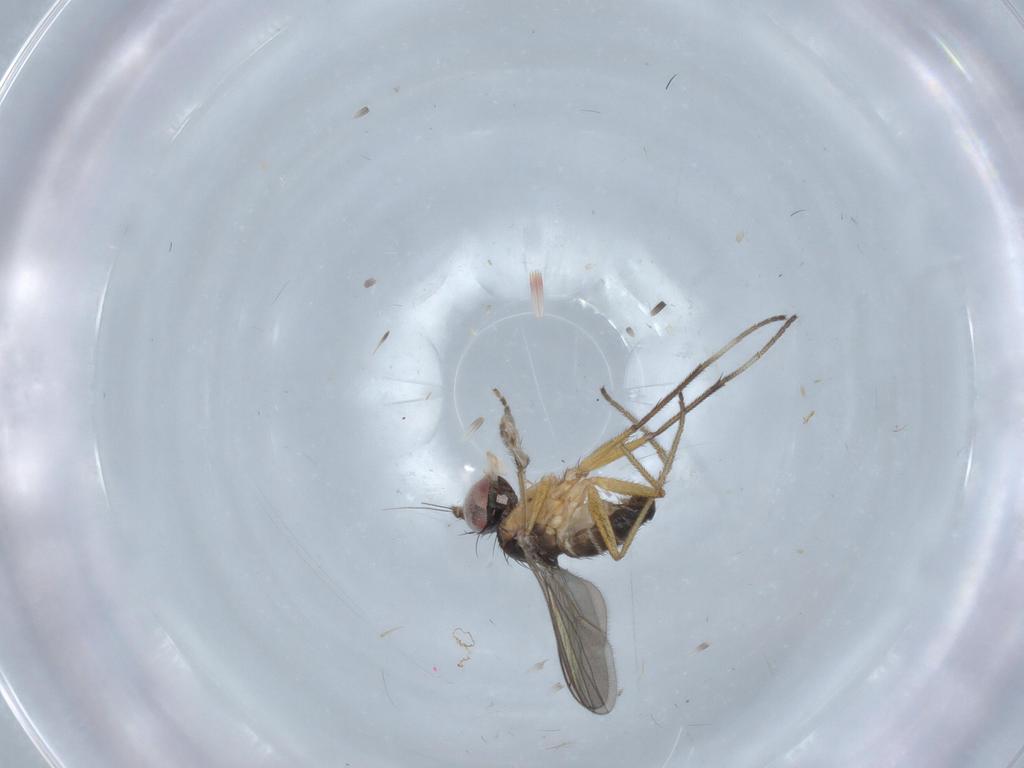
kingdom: Animalia
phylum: Arthropoda
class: Insecta
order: Diptera
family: Dolichopodidae
